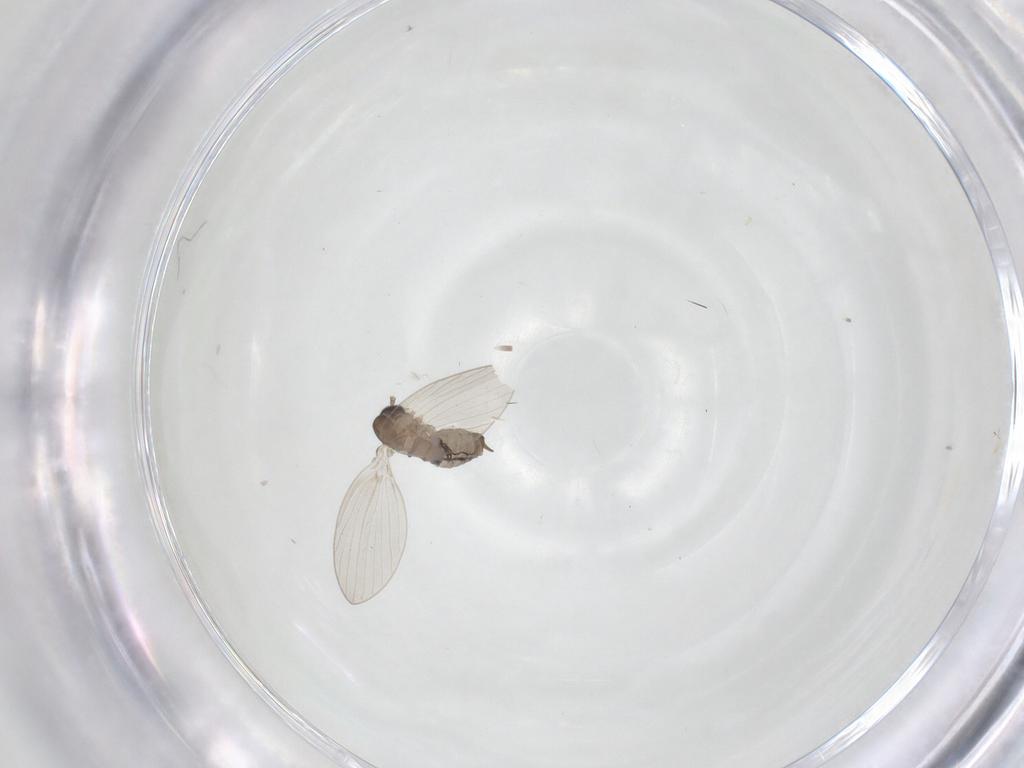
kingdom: Animalia
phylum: Arthropoda
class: Insecta
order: Diptera
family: Psychodidae
